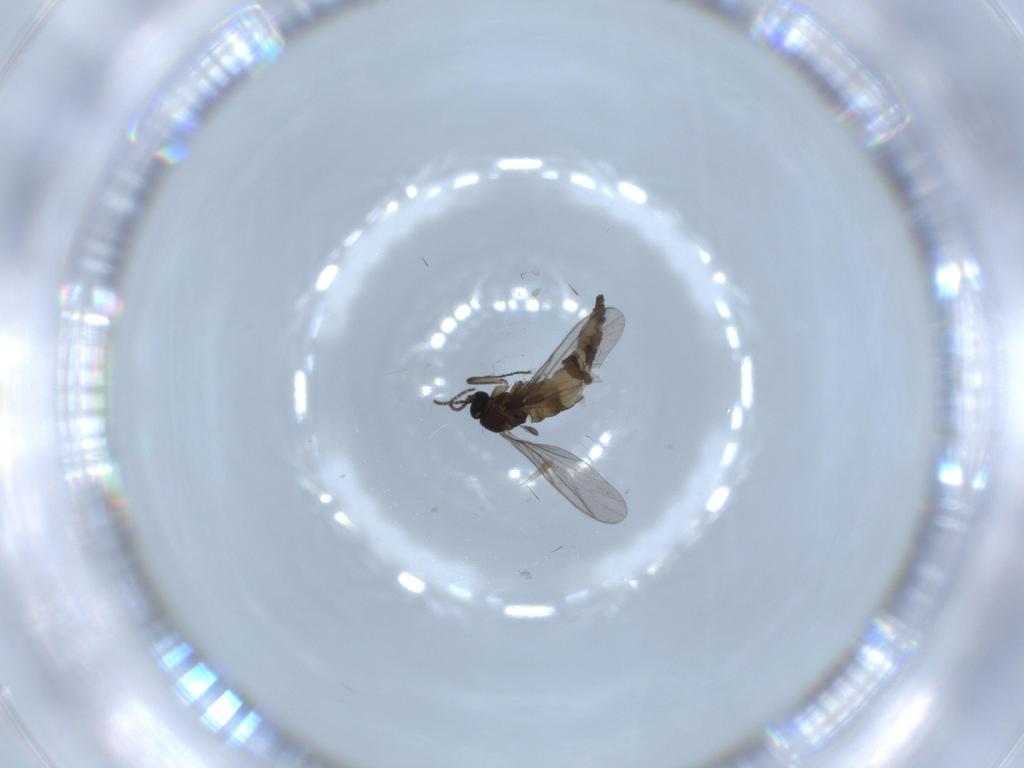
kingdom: Animalia
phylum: Arthropoda
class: Insecta
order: Diptera
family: Cecidomyiidae
